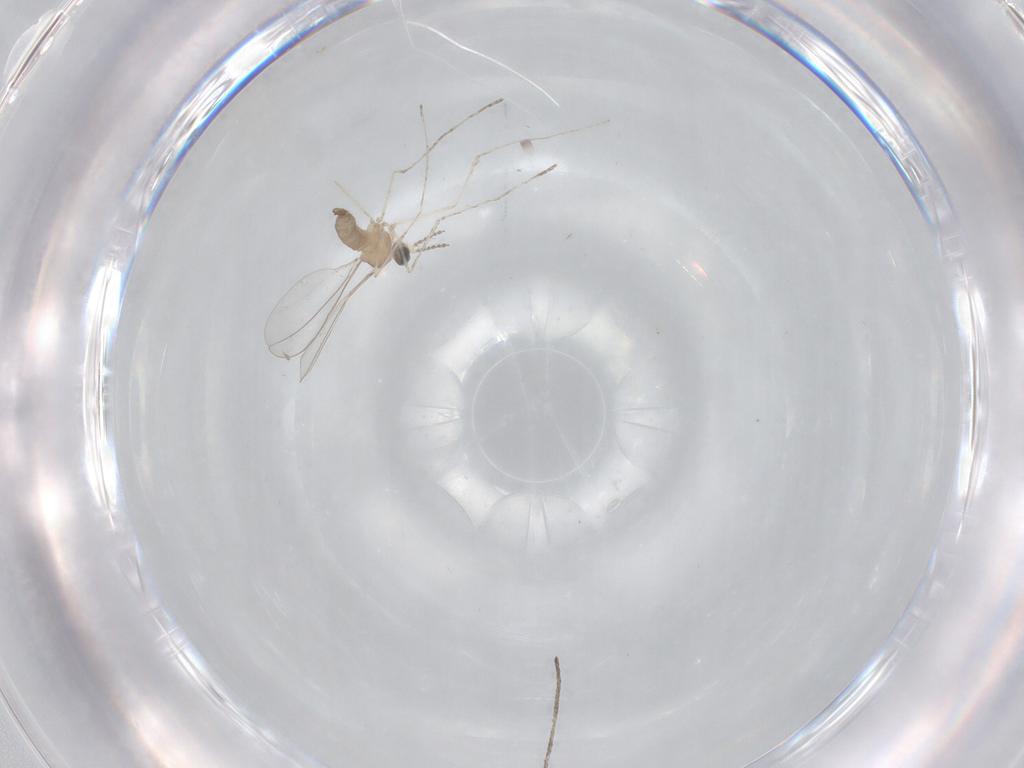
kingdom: Animalia
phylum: Arthropoda
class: Insecta
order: Diptera
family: Cecidomyiidae
